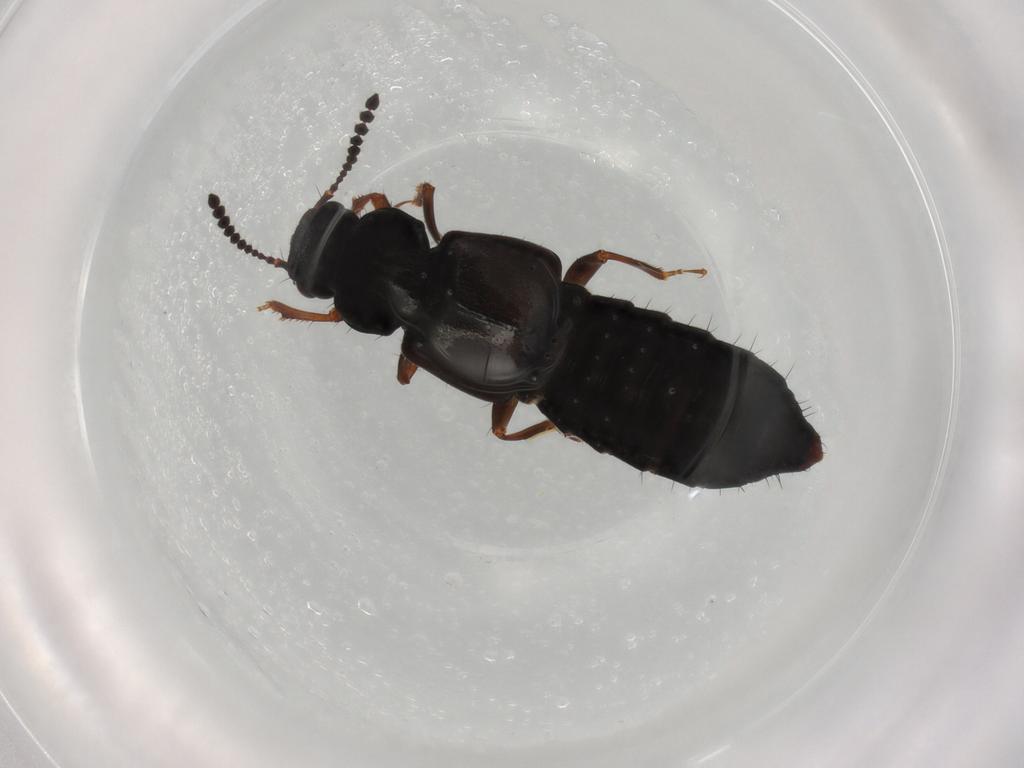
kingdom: Animalia
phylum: Arthropoda
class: Insecta
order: Coleoptera
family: Staphylinidae
